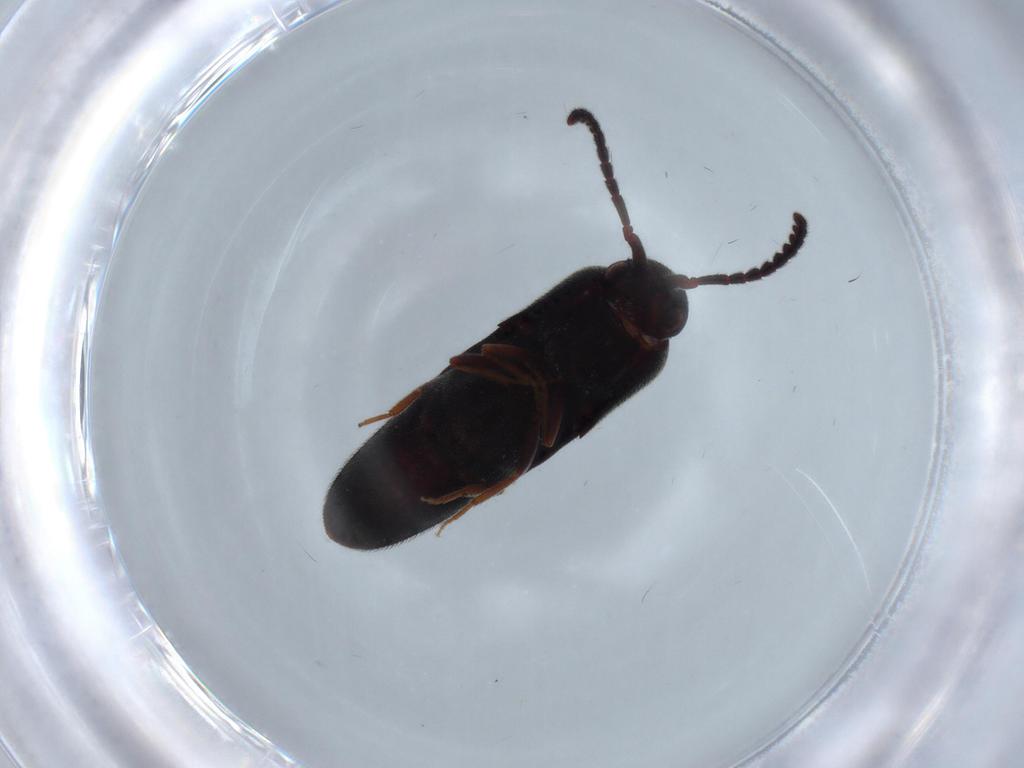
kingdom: Animalia
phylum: Arthropoda
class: Insecta
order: Coleoptera
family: Eucnemidae
